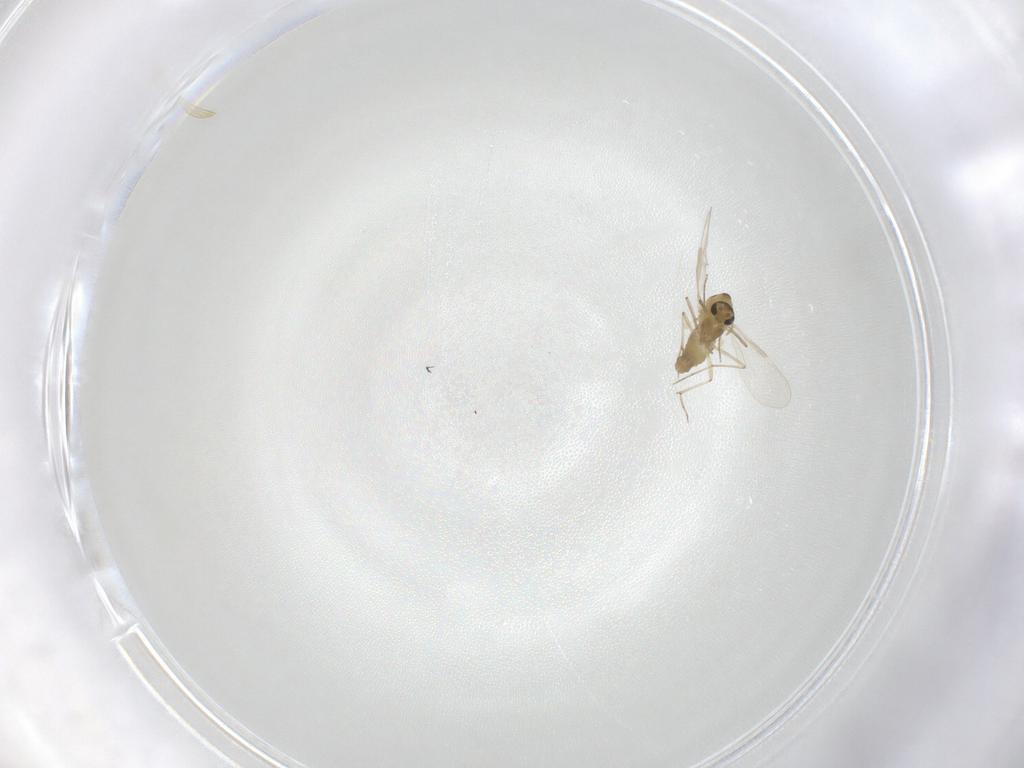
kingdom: Animalia
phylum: Arthropoda
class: Insecta
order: Diptera
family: Chironomidae
